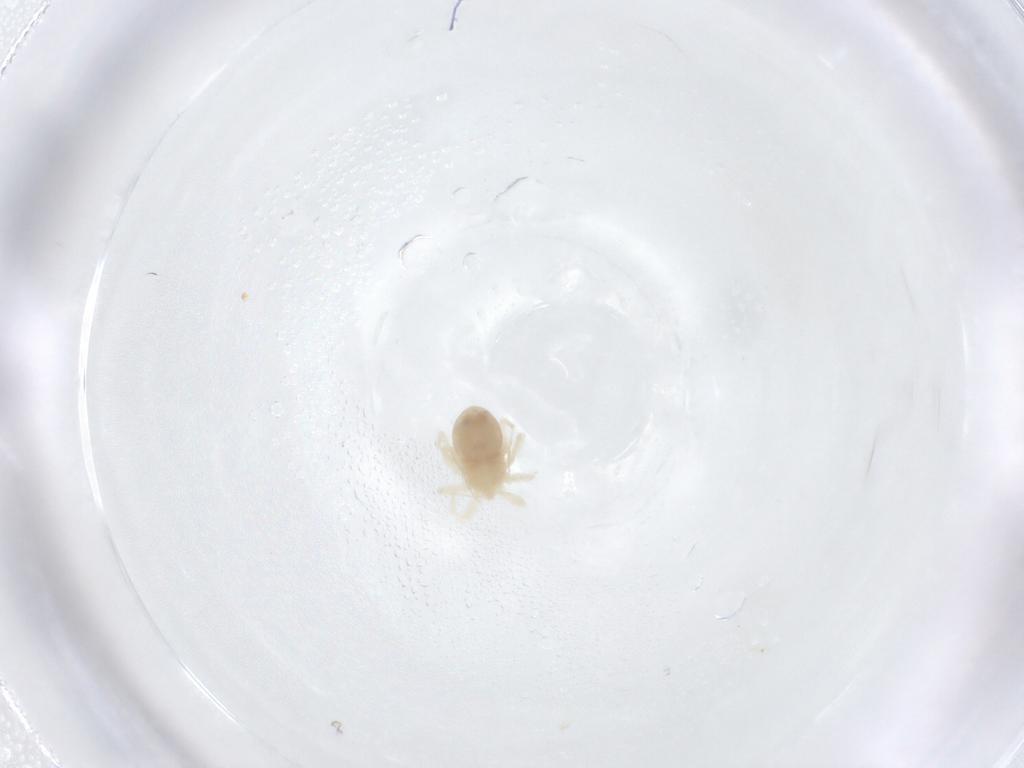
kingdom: Animalia
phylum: Arthropoda
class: Arachnida
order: Trombidiformes
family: Anystidae
